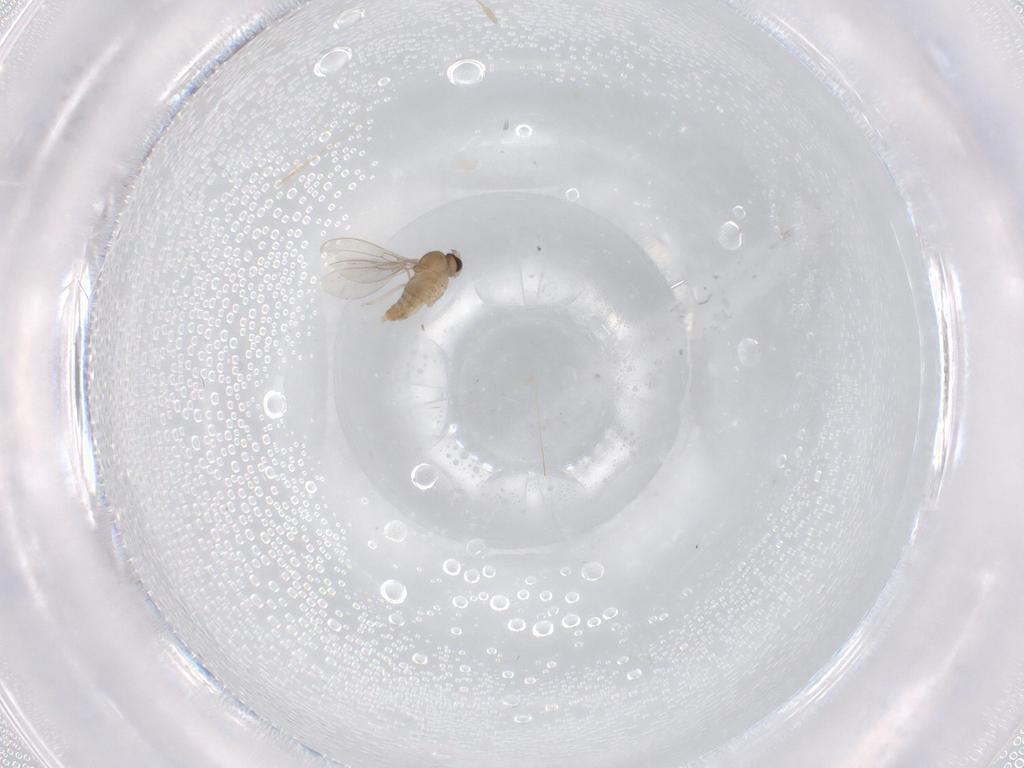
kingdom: Animalia
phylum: Arthropoda
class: Insecta
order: Diptera
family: Cecidomyiidae
